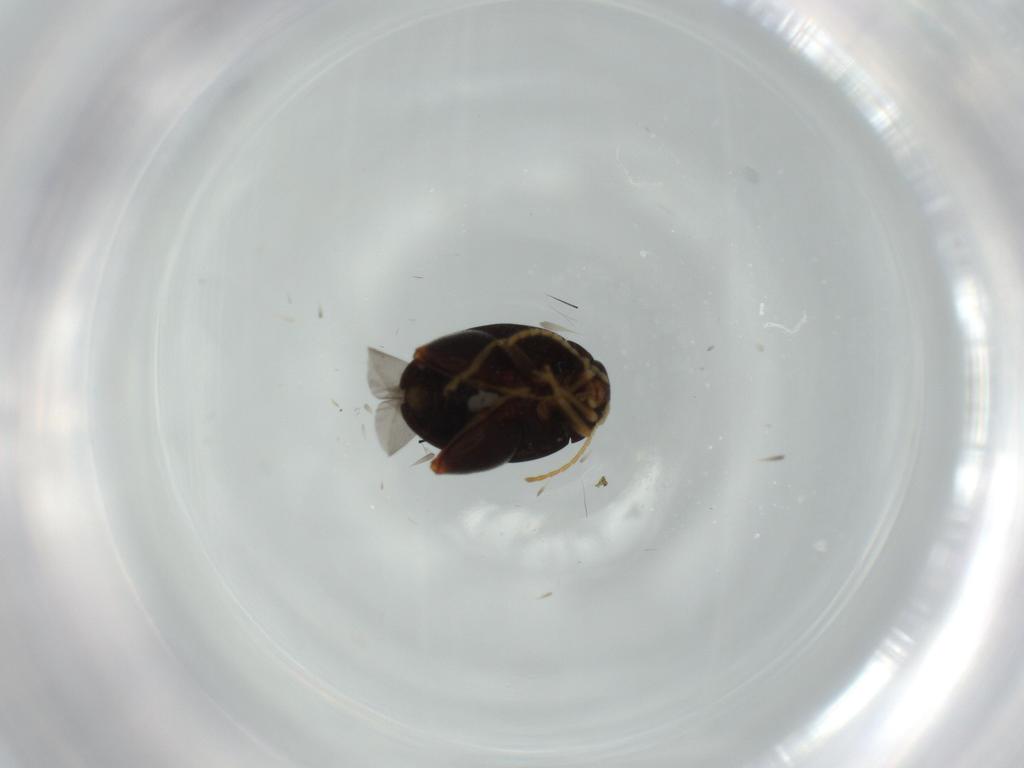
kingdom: Animalia
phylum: Arthropoda
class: Insecta
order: Coleoptera
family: Chrysomelidae
